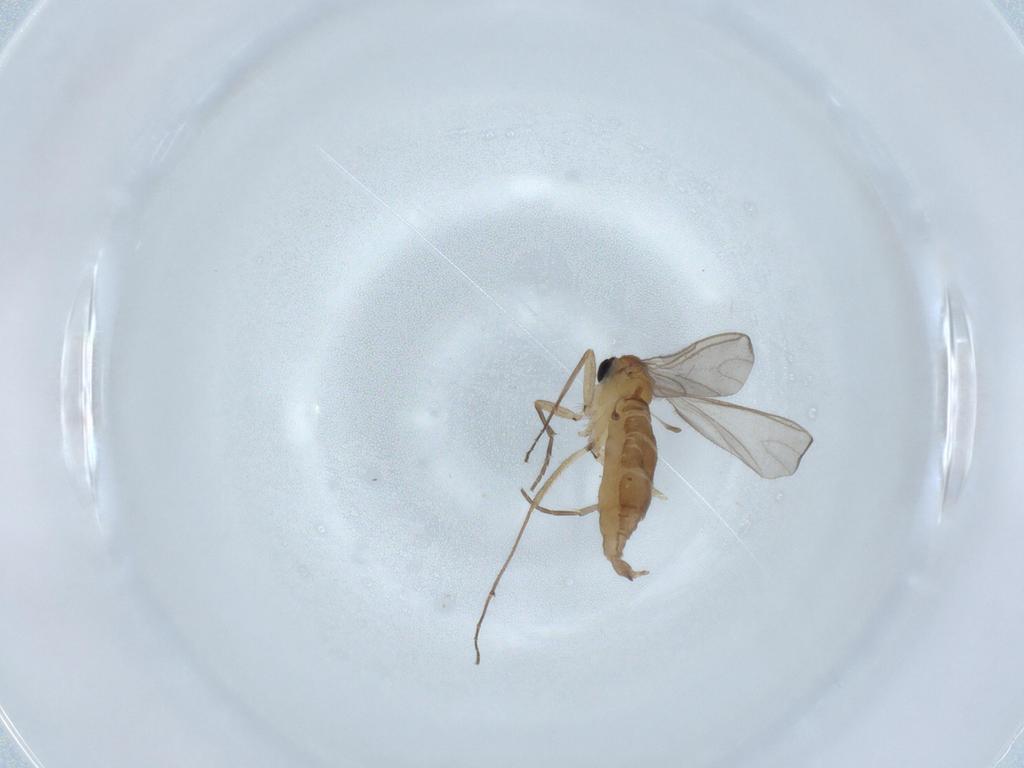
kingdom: Animalia
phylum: Arthropoda
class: Insecta
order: Diptera
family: Sciaridae
